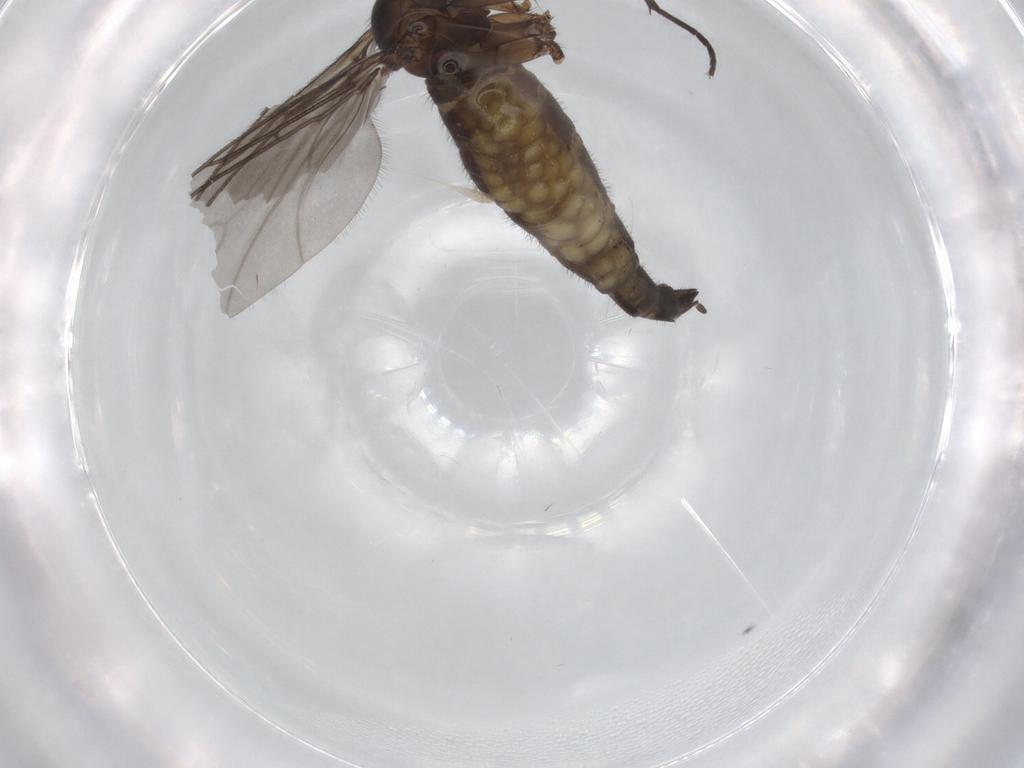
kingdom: Animalia
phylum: Arthropoda
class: Insecta
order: Diptera
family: Sciaridae
